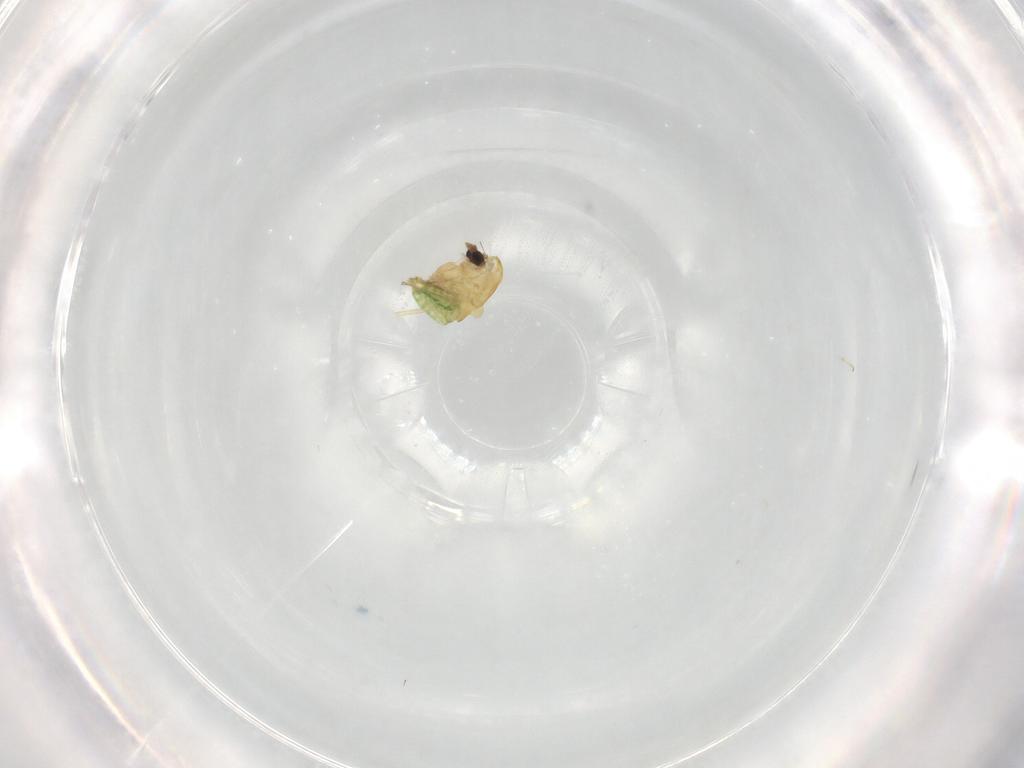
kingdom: Animalia
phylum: Arthropoda
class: Insecta
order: Diptera
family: Chironomidae
